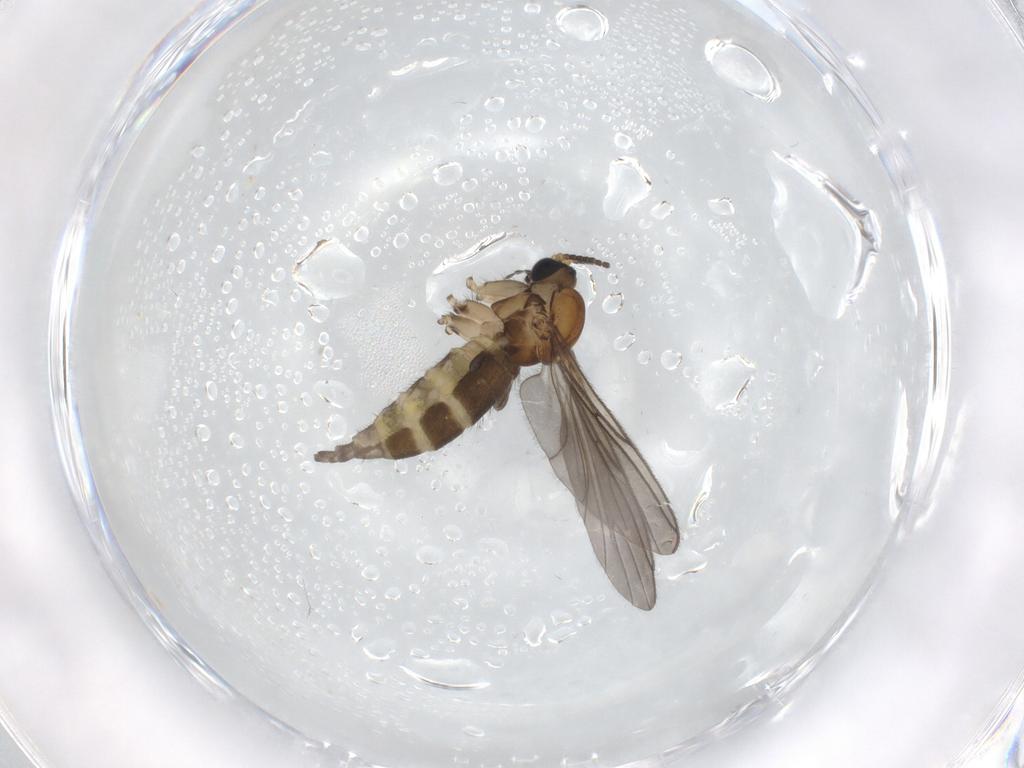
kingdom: Animalia
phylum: Arthropoda
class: Insecta
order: Diptera
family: Sciaridae
